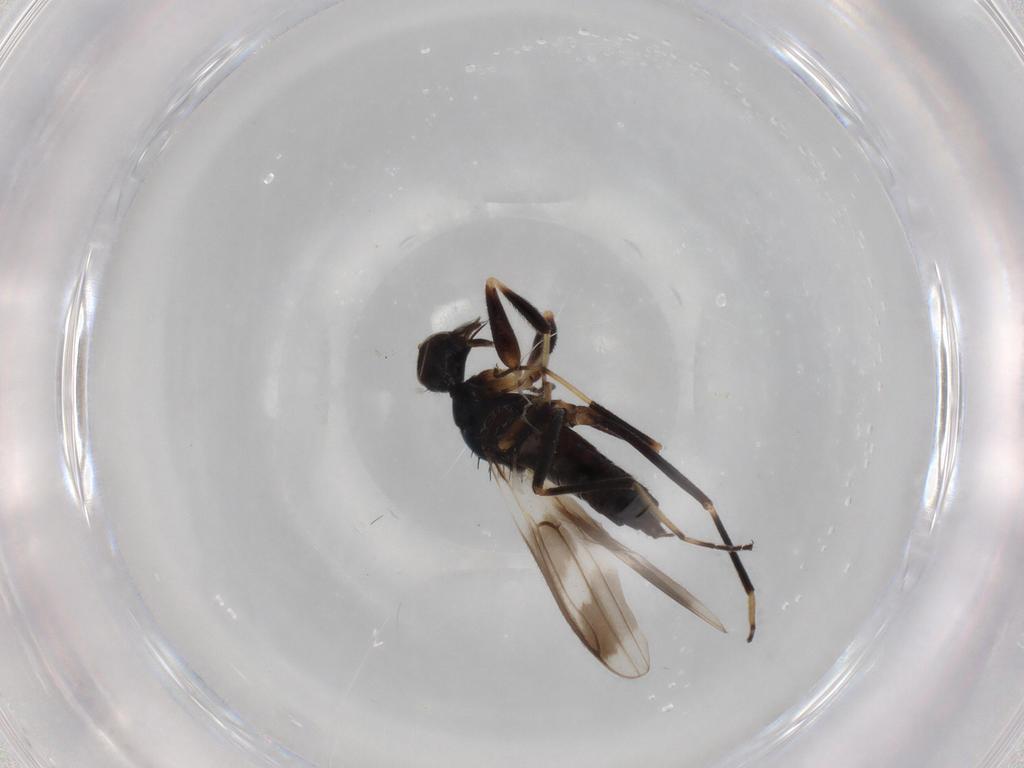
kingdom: Animalia
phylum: Arthropoda
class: Insecta
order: Diptera
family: Hybotidae
